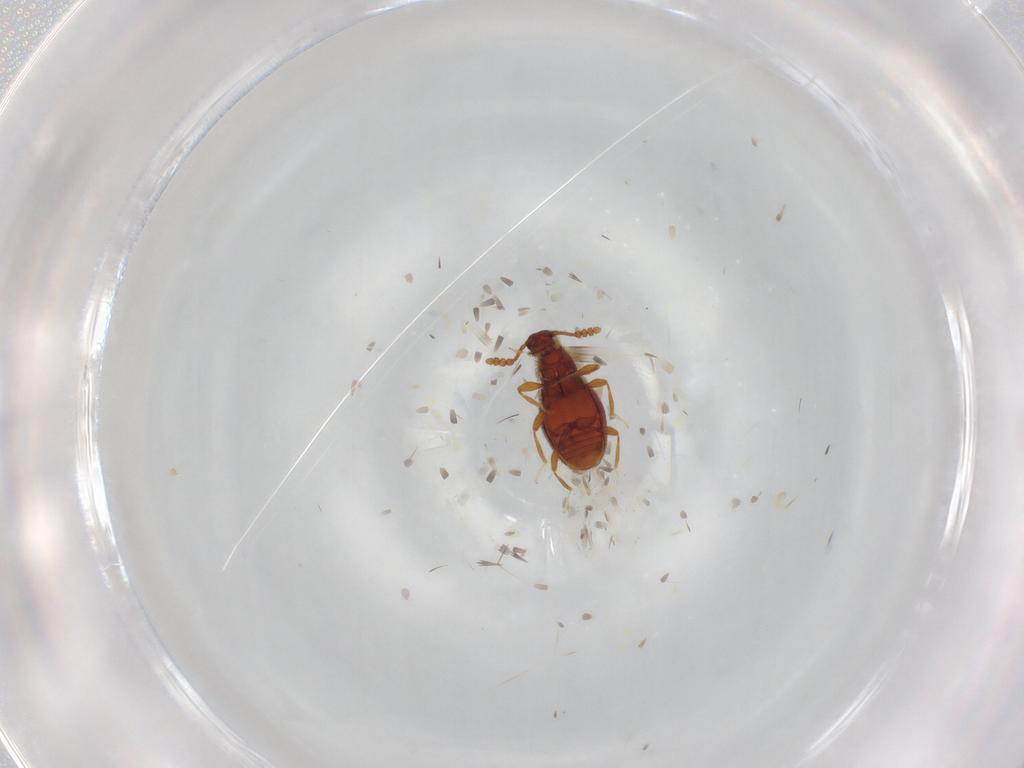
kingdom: Animalia
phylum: Arthropoda
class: Insecta
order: Coleoptera
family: Staphylinidae
